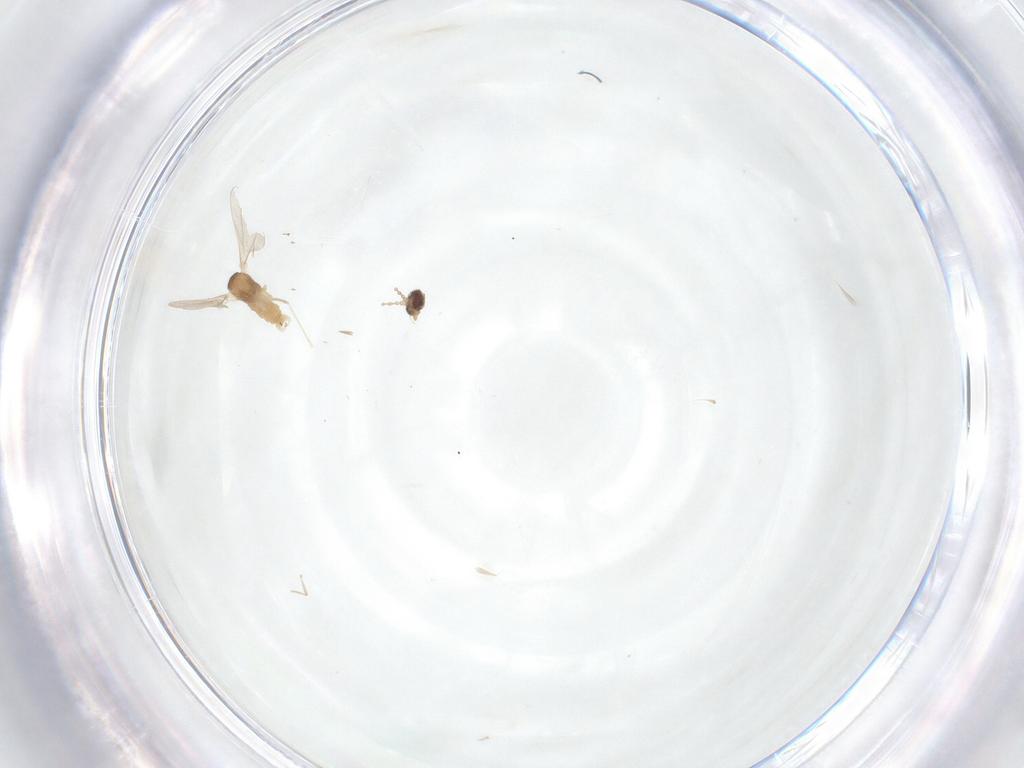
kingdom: Animalia
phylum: Arthropoda
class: Insecta
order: Diptera
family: Cecidomyiidae
